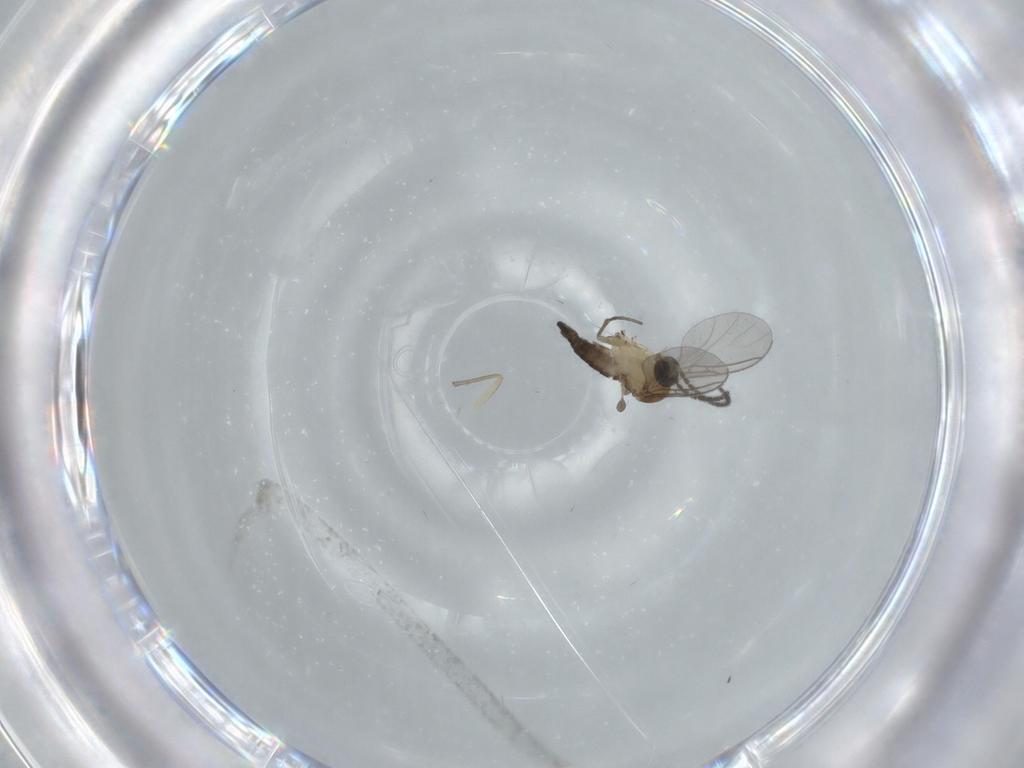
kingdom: Animalia
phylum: Arthropoda
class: Insecta
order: Diptera
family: Sciaridae
